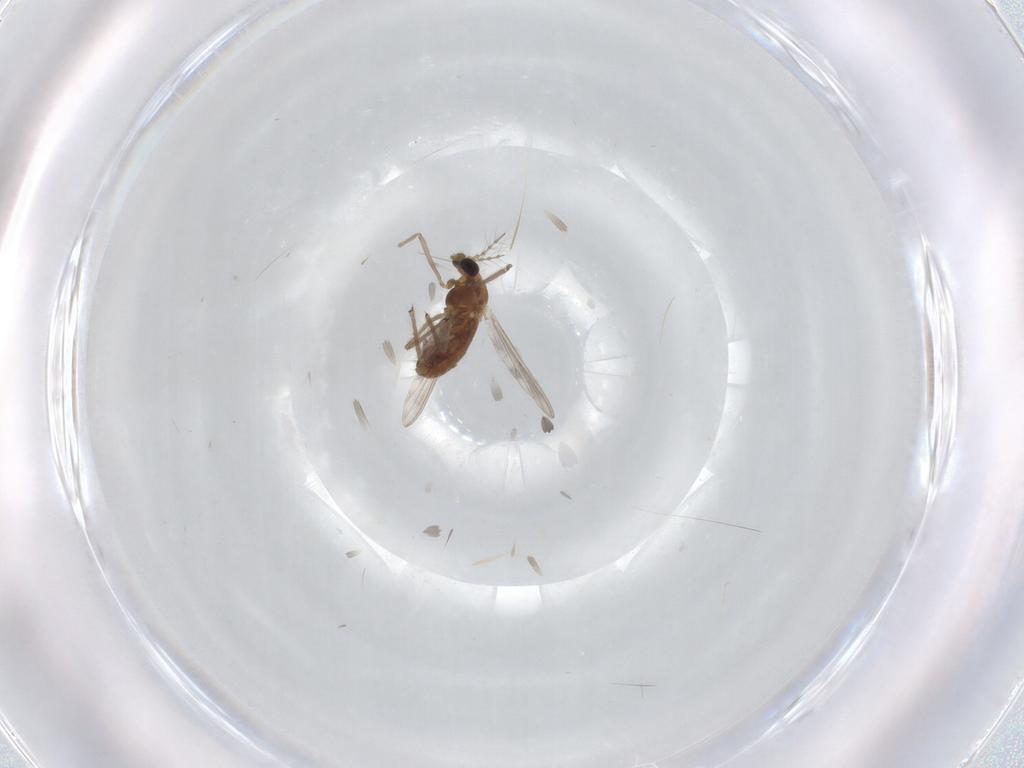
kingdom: Animalia
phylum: Arthropoda
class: Insecta
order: Diptera
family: Chironomidae
